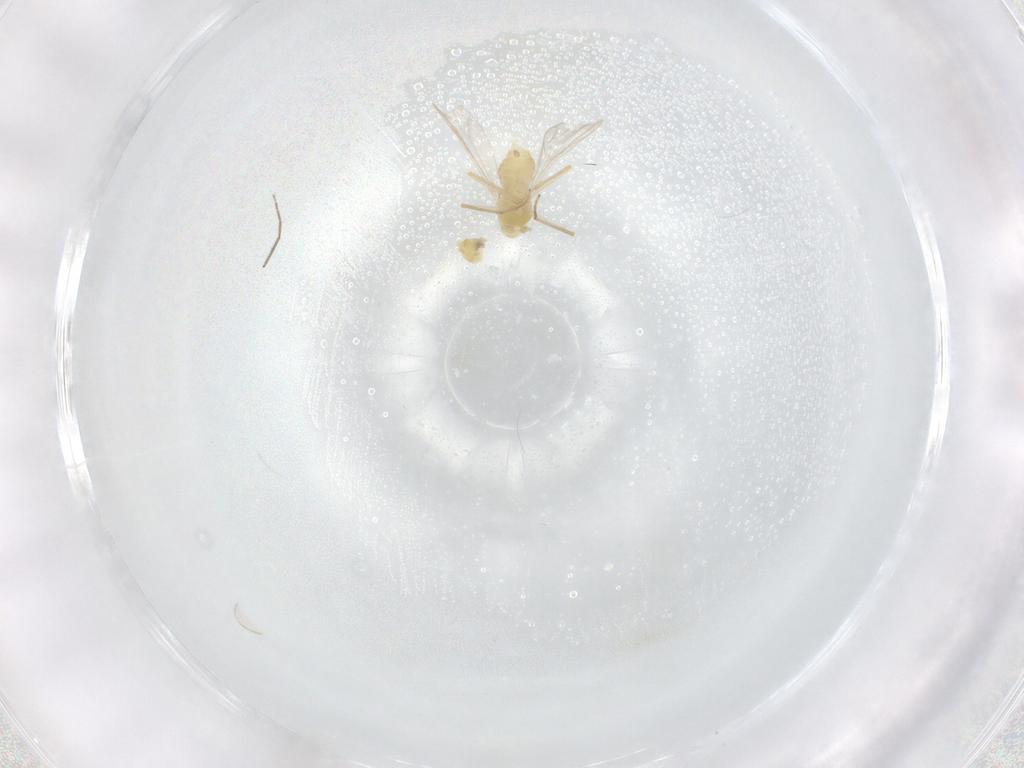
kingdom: Animalia
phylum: Arthropoda
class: Insecta
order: Diptera
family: Chironomidae
